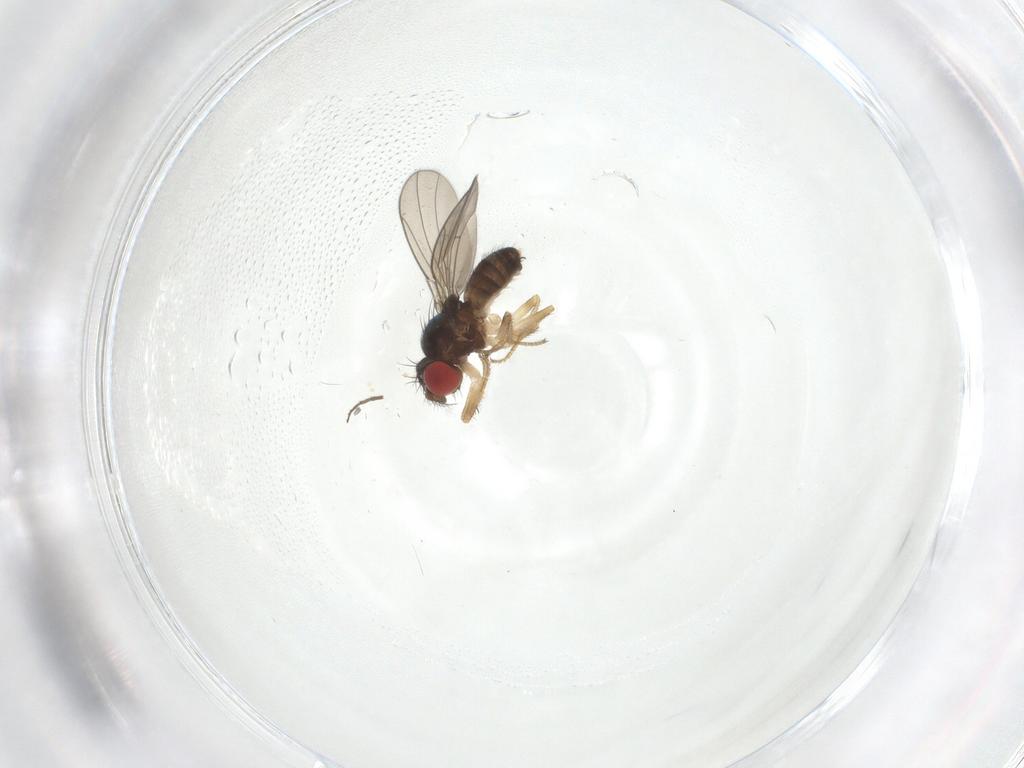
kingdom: Animalia
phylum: Arthropoda
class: Insecta
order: Diptera
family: Drosophilidae
